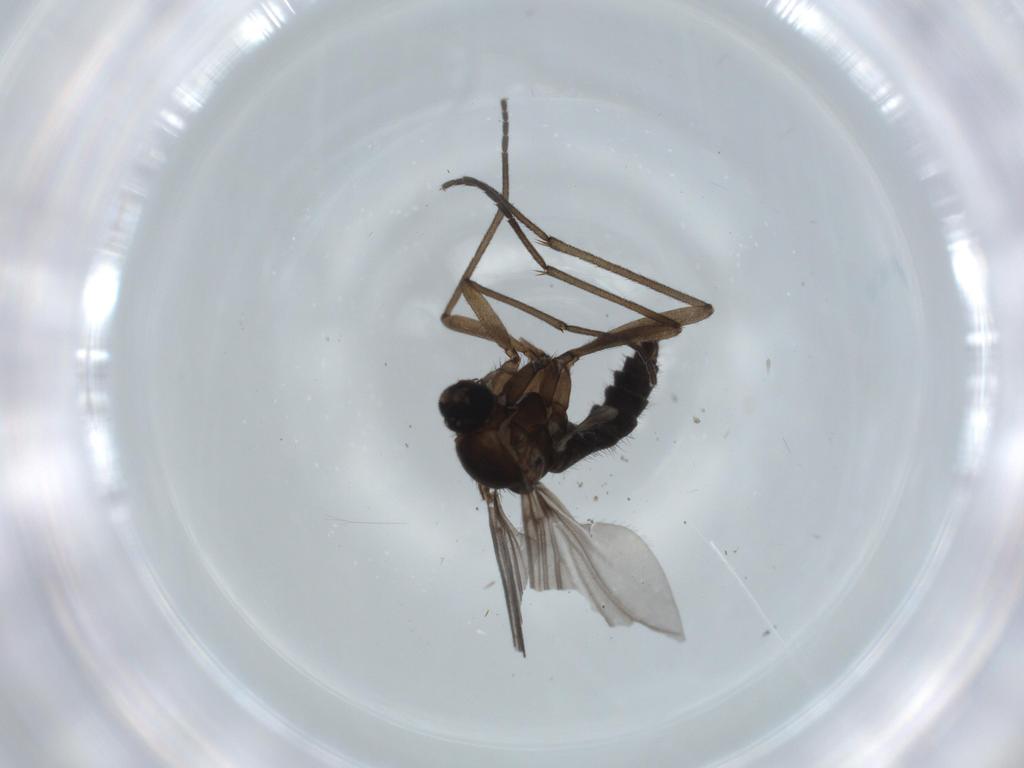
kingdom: Animalia
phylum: Arthropoda
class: Insecta
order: Diptera
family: Sciaridae
